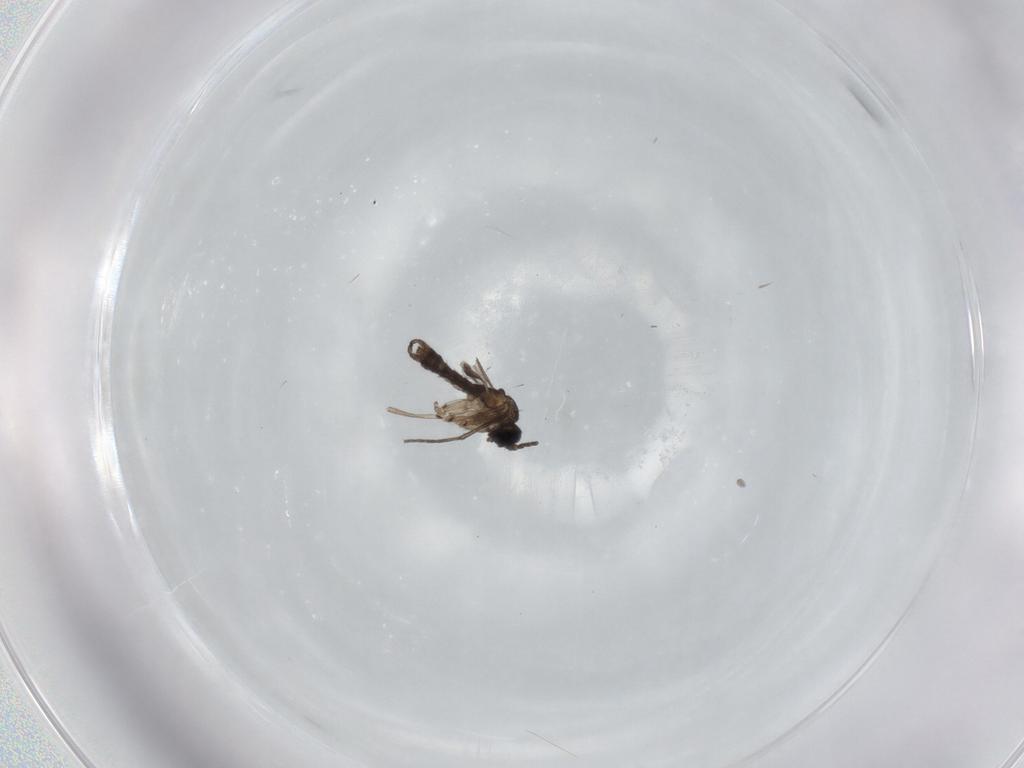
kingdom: Animalia
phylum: Arthropoda
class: Insecta
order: Diptera
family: Sciaridae
